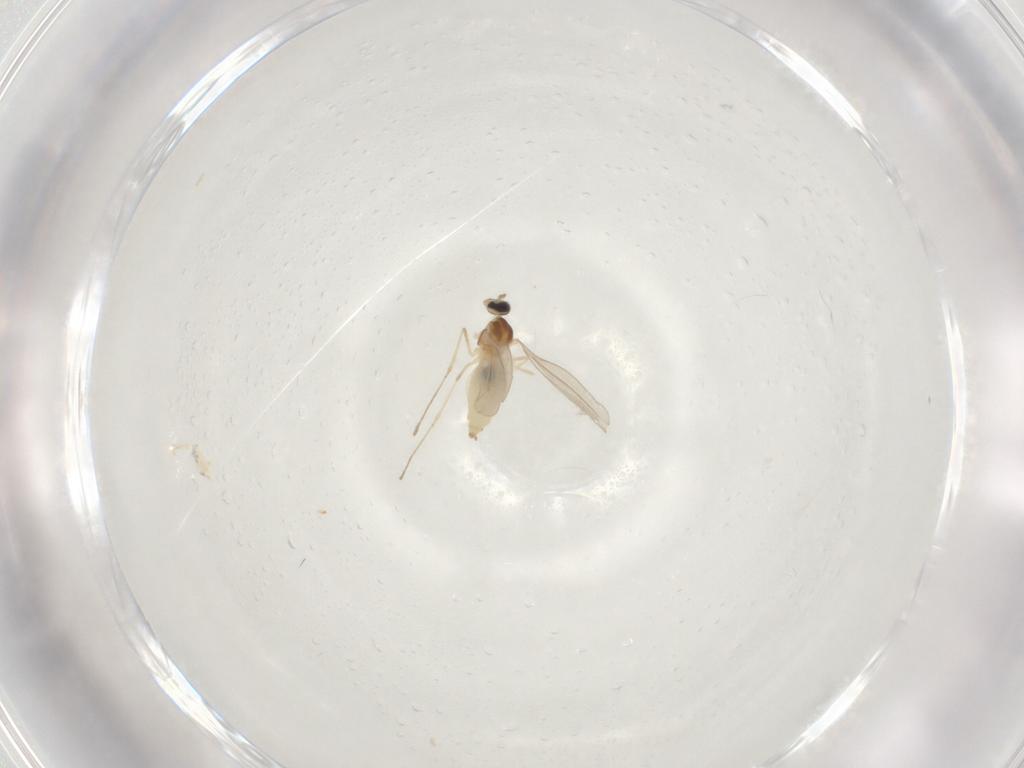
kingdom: Animalia
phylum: Arthropoda
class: Insecta
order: Diptera
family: Cecidomyiidae
